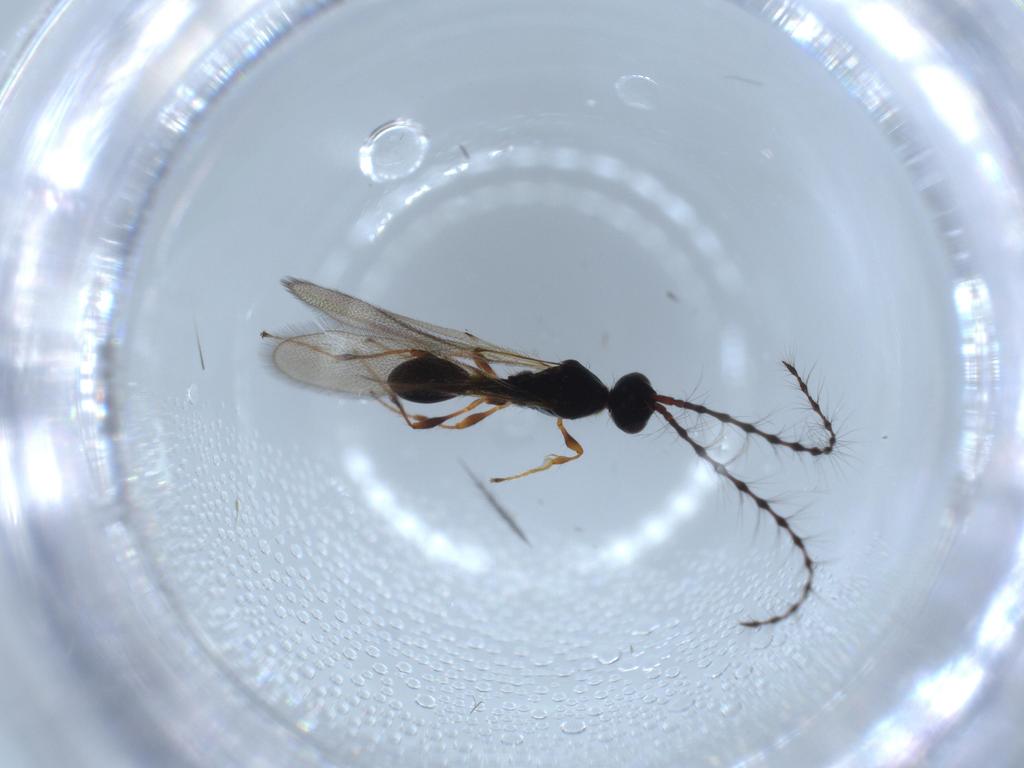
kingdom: Animalia
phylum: Arthropoda
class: Insecta
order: Hymenoptera
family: Diapriidae
